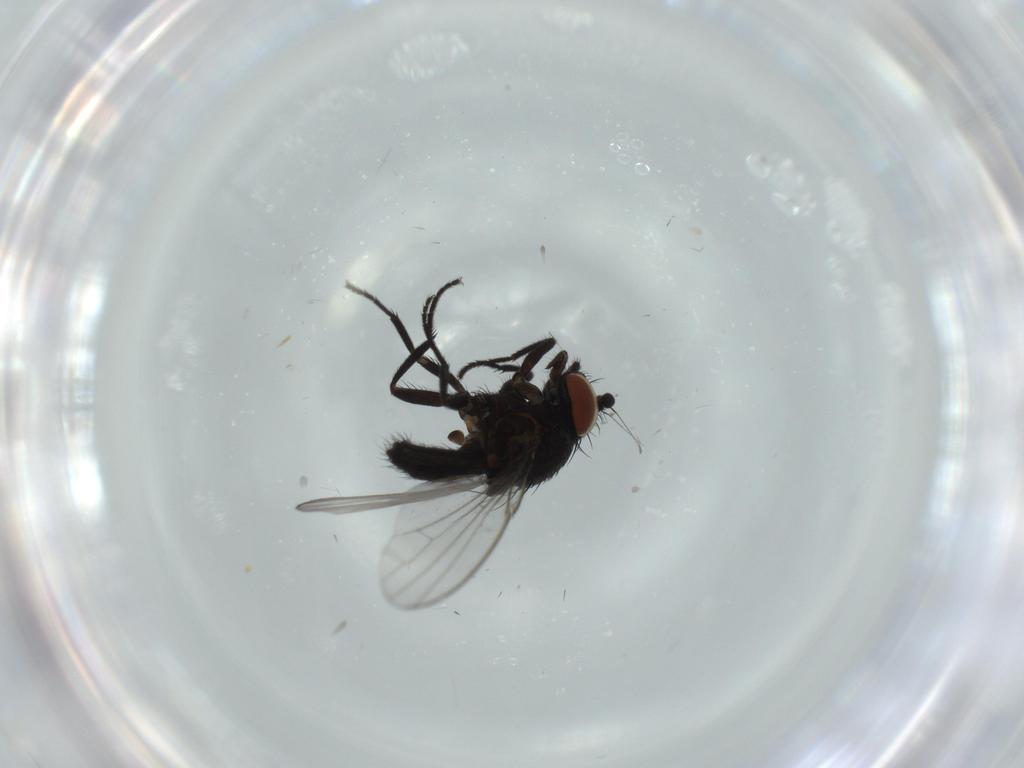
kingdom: Animalia
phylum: Arthropoda
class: Insecta
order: Diptera
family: Milichiidae
